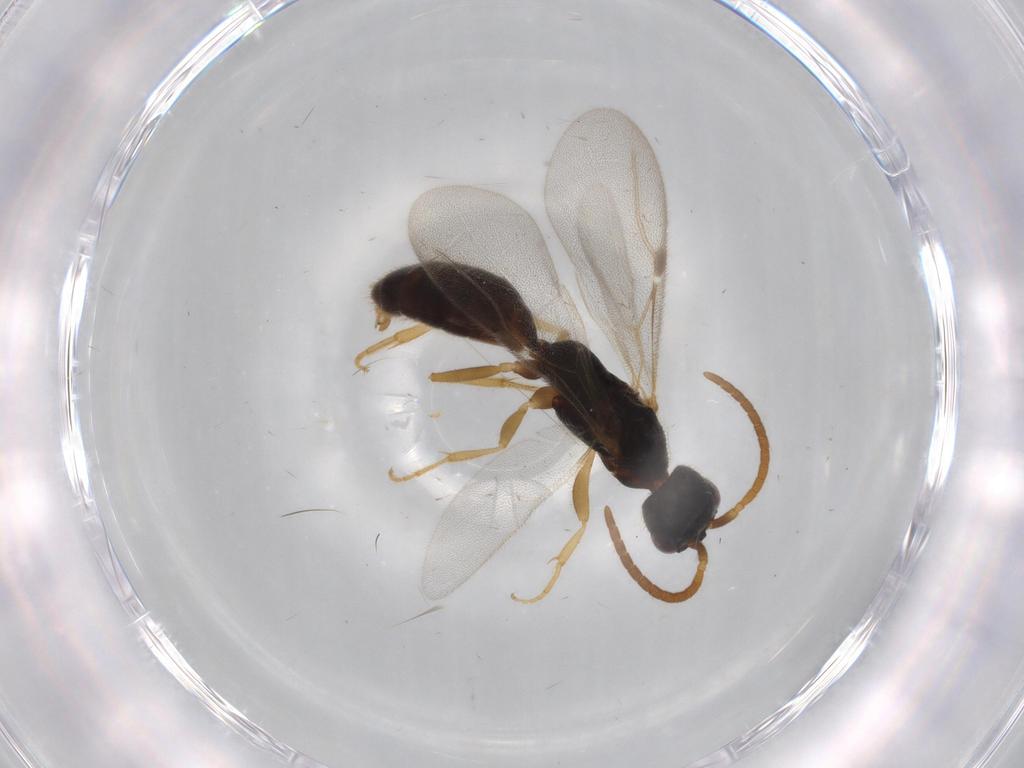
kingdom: Animalia
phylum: Arthropoda
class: Insecta
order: Hymenoptera
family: Bethylidae
